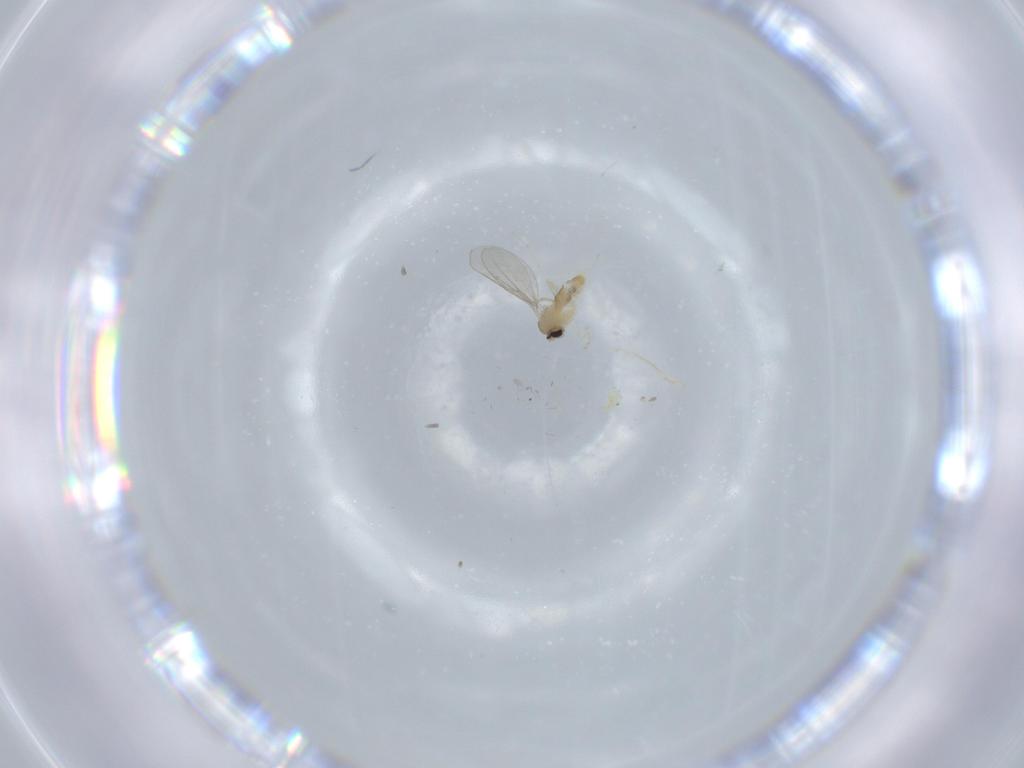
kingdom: Animalia
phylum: Arthropoda
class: Insecta
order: Diptera
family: Cecidomyiidae
